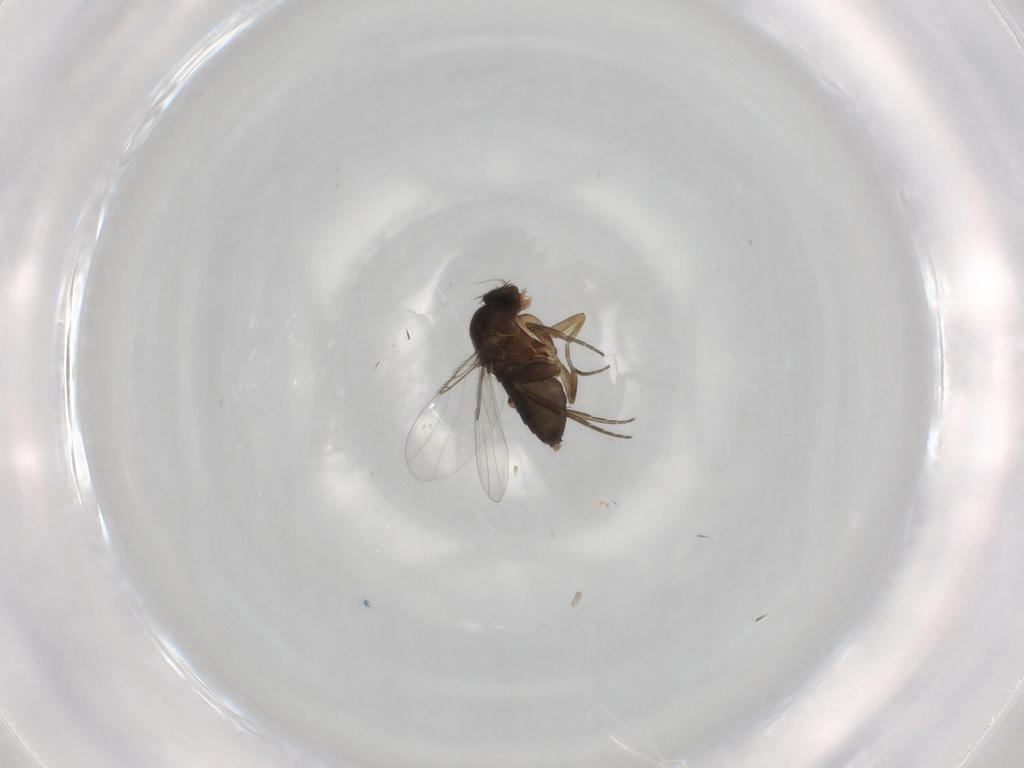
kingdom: Animalia
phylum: Arthropoda
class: Insecta
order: Diptera
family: Phoridae
